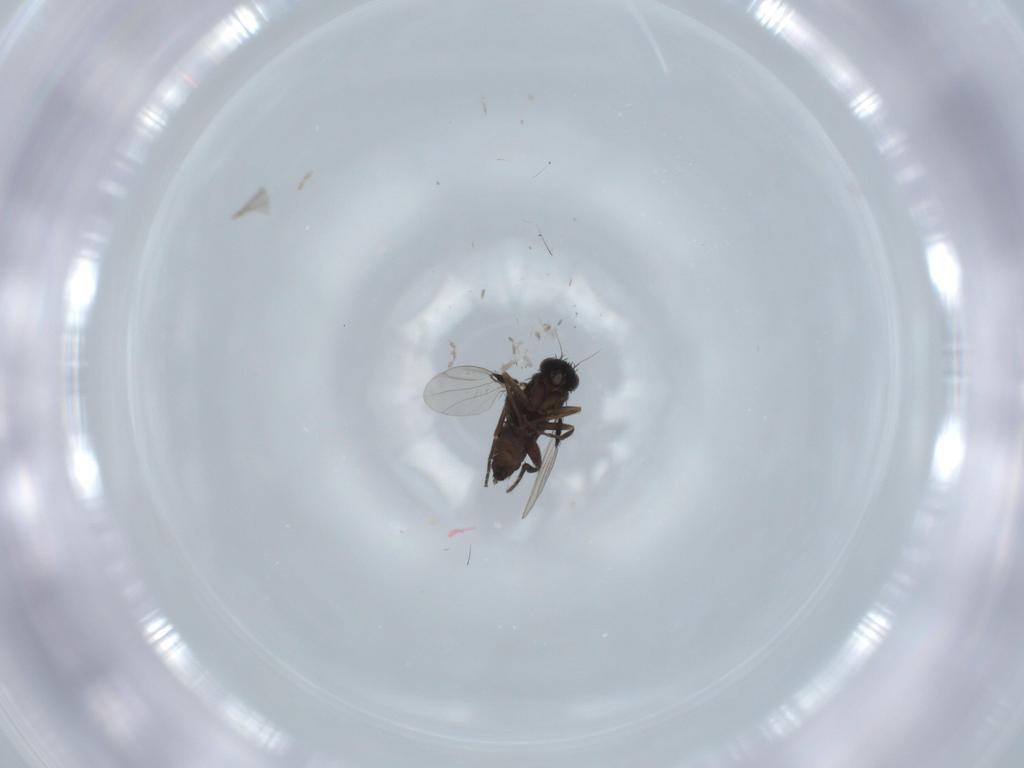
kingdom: Animalia
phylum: Arthropoda
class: Insecta
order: Diptera
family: Cecidomyiidae
